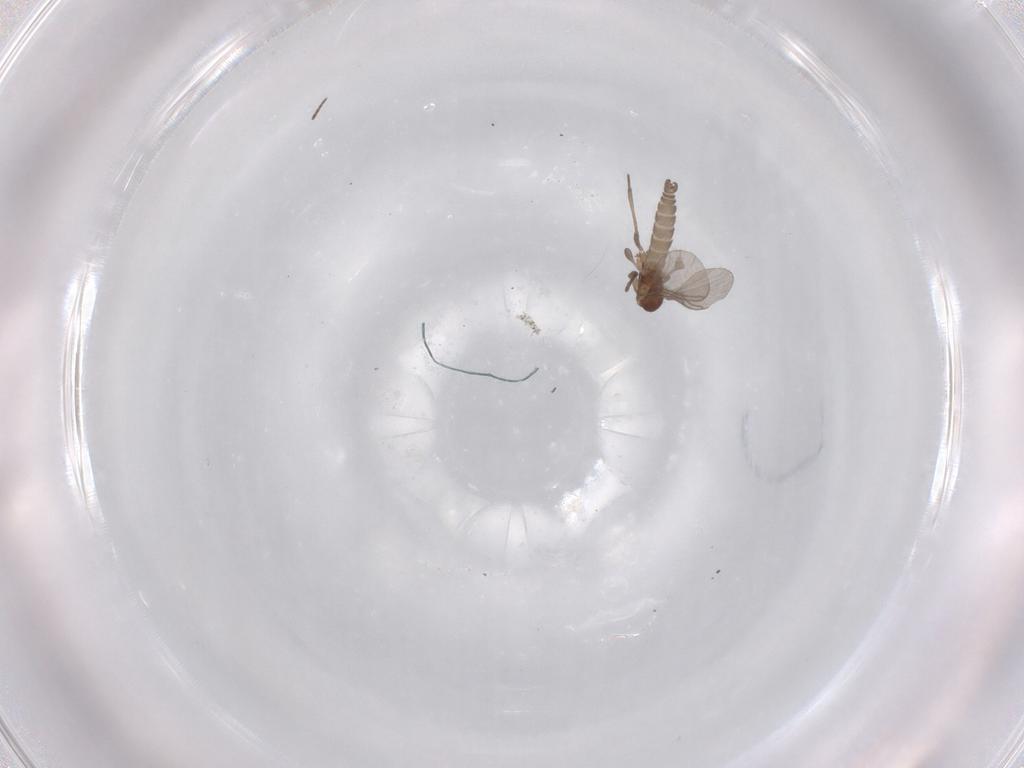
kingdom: Animalia
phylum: Arthropoda
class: Insecta
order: Diptera
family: Sciaridae
